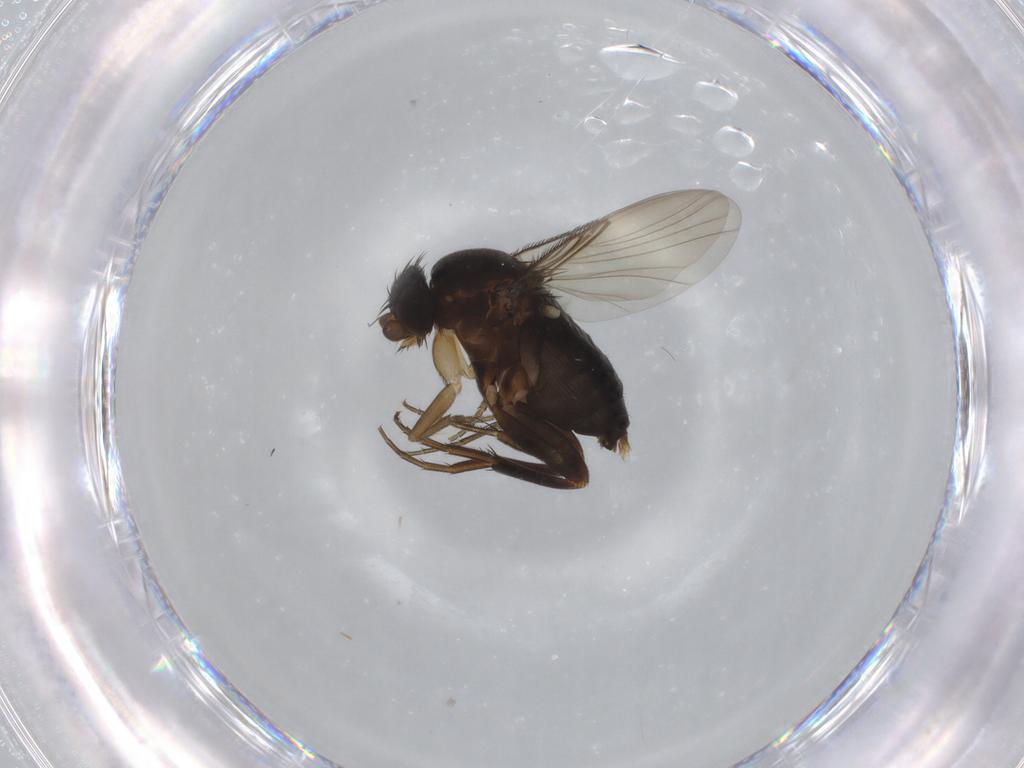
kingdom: Animalia
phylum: Arthropoda
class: Insecta
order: Diptera
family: Phoridae
